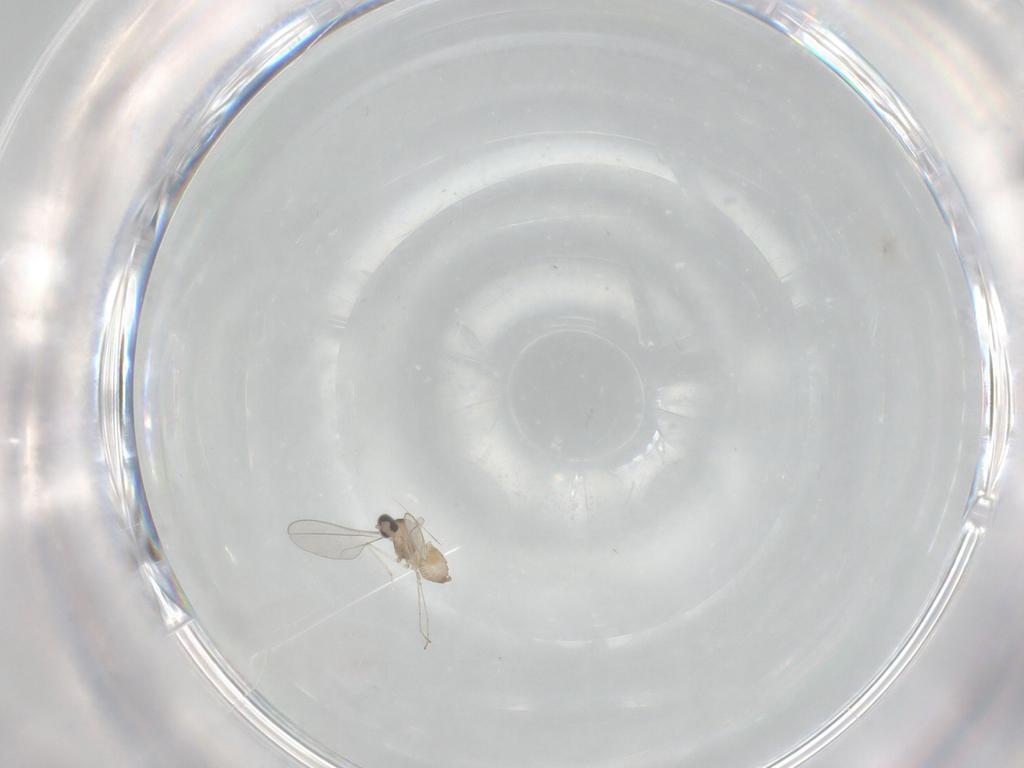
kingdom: Animalia
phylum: Arthropoda
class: Insecta
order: Diptera
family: Cecidomyiidae
